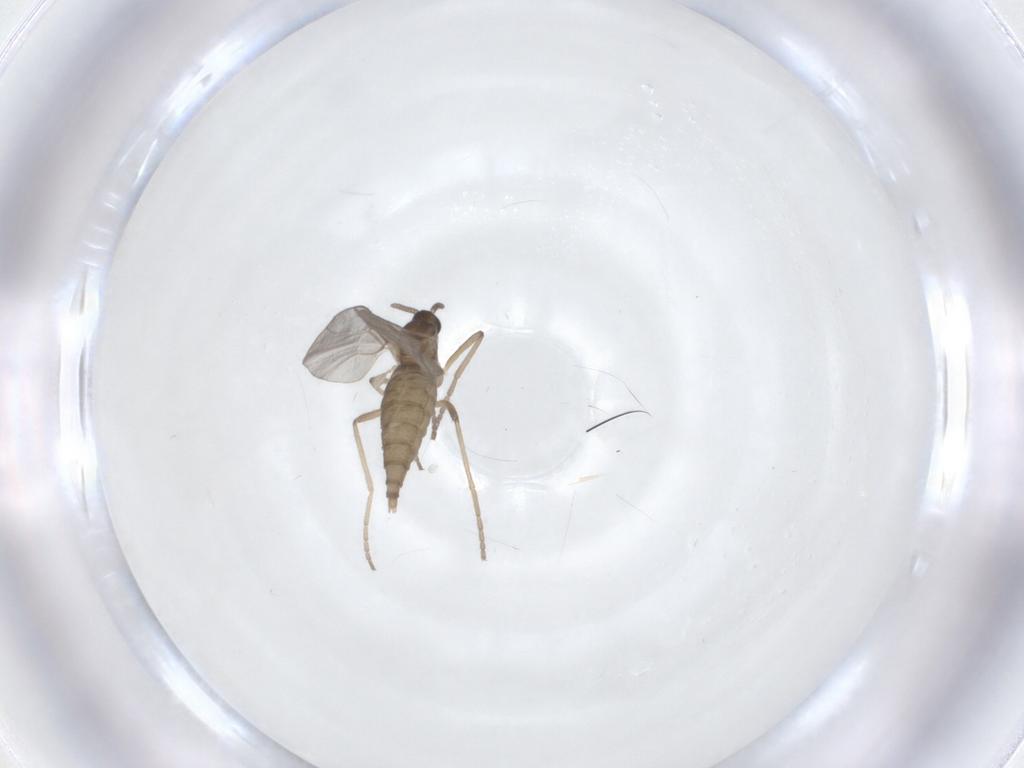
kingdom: Animalia
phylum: Arthropoda
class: Insecta
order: Diptera
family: Cecidomyiidae
